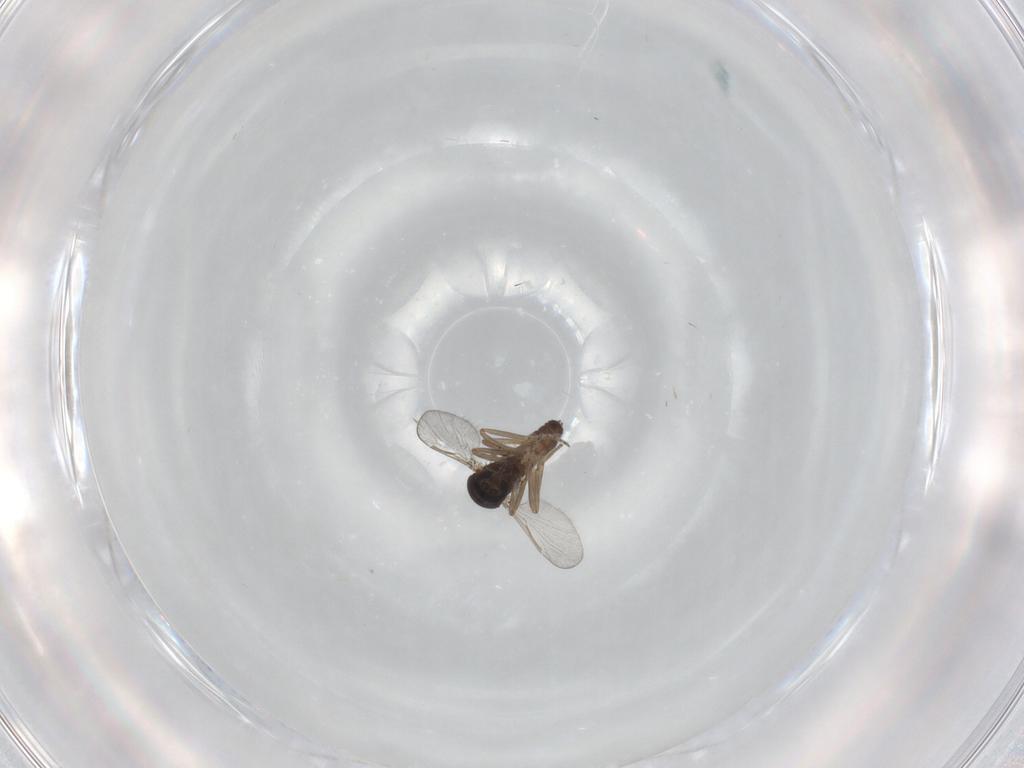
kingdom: Animalia
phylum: Arthropoda
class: Insecta
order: Diptera
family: Ceratopogonidae
